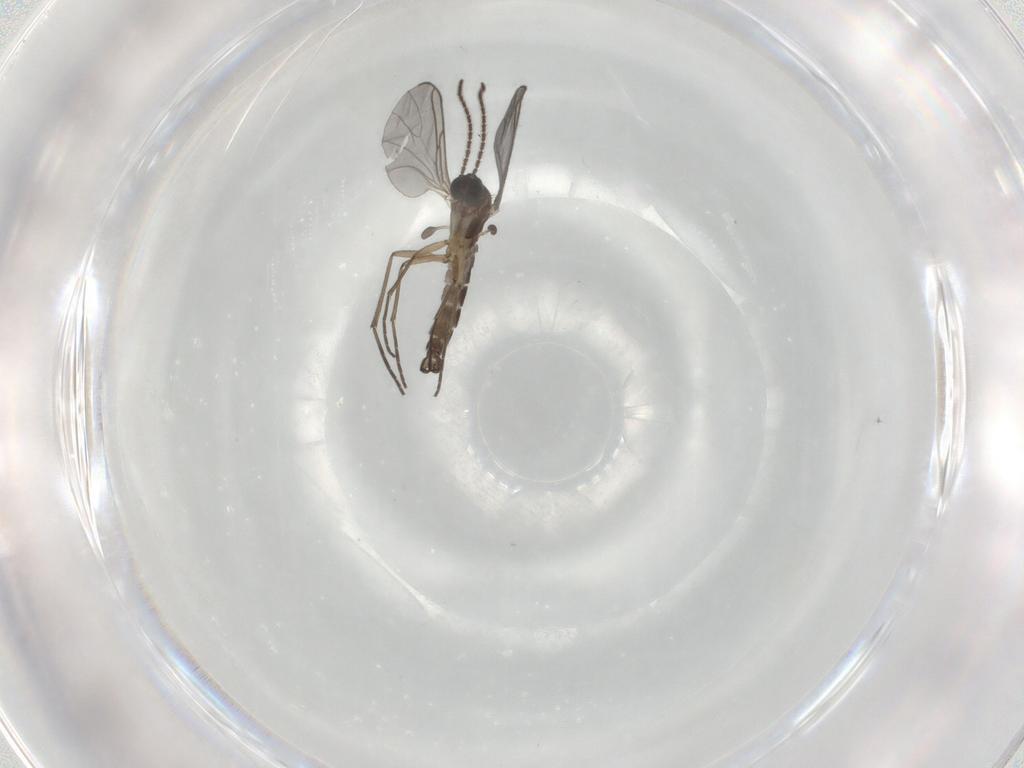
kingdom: Animalia
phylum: Arthropoda
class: Insecta
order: Diptera
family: Sciaridae
